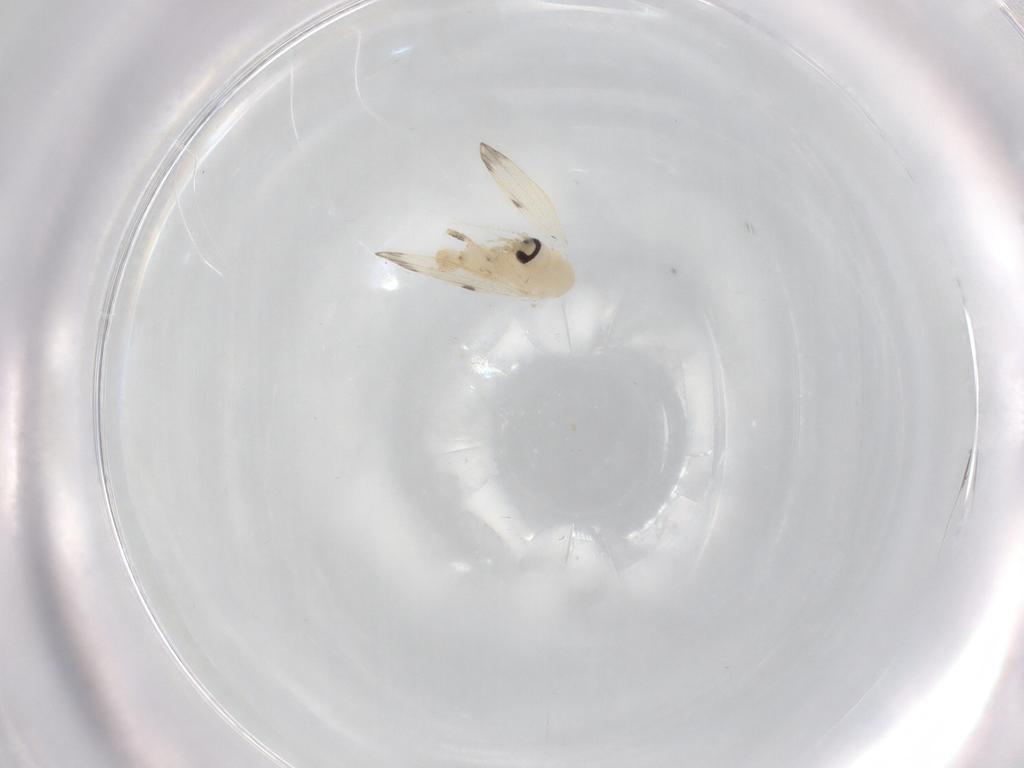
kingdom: Animalia
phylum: Arthropoda
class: Insecta
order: Diptera
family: Psychodidae
